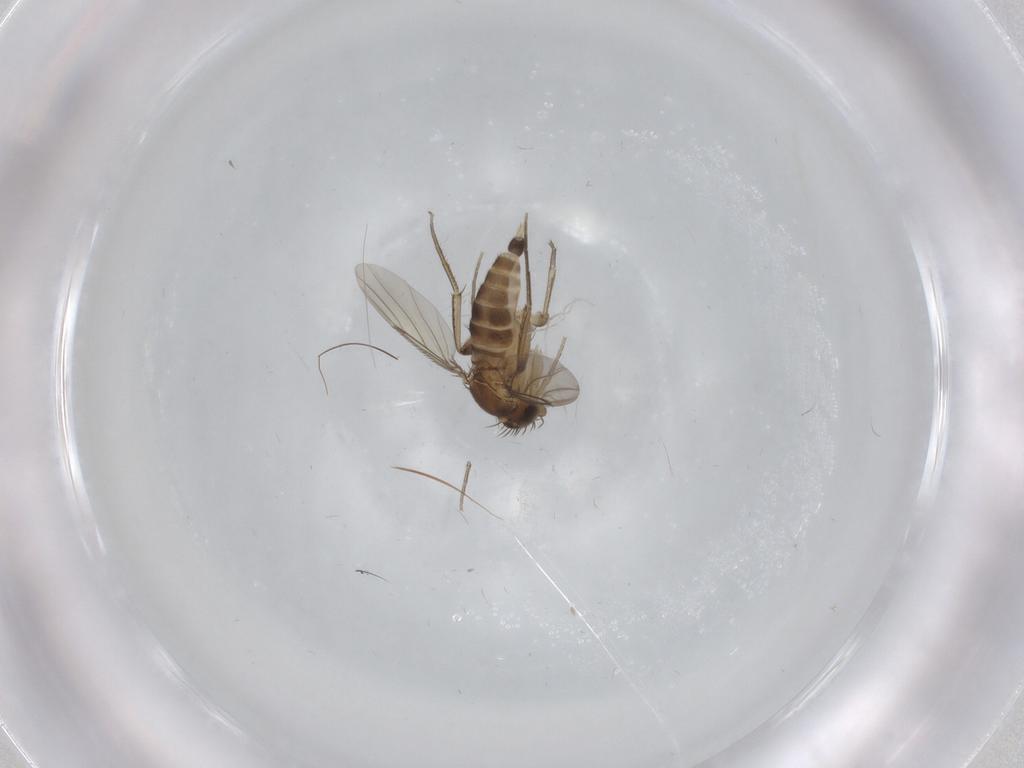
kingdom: Animalia
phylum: Arthropoda
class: Insecta
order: Diptera
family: Phoridae
